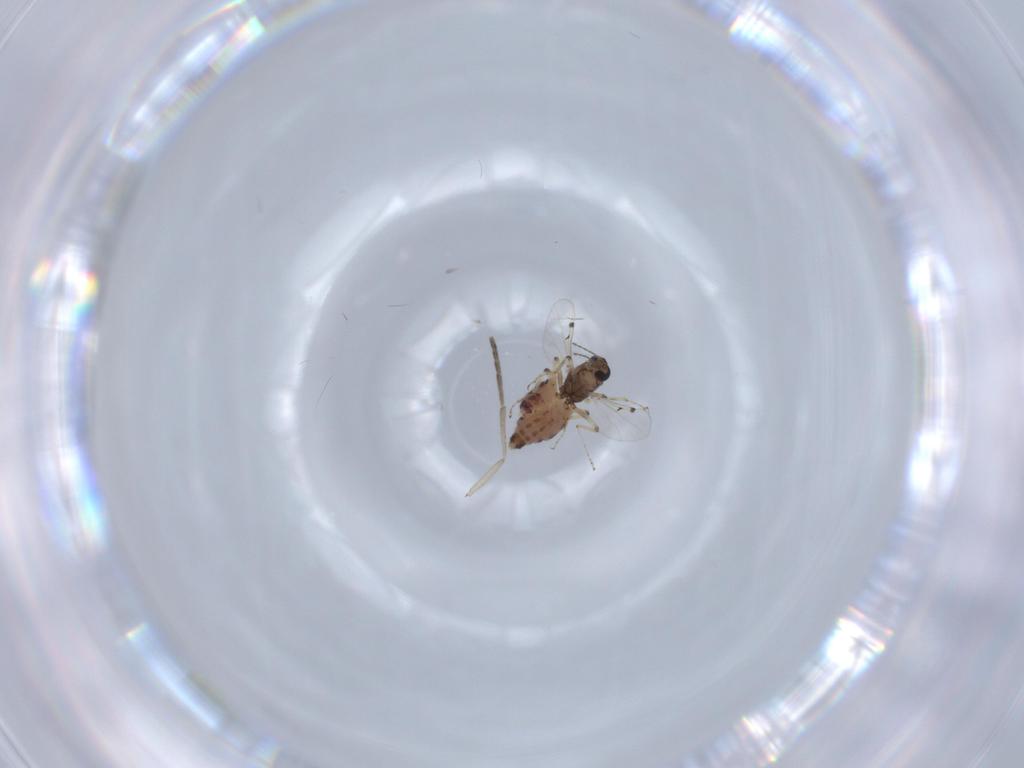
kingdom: Animalia
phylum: Arthropoda
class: Insecta
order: Diptera
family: Ceratopogonidae
